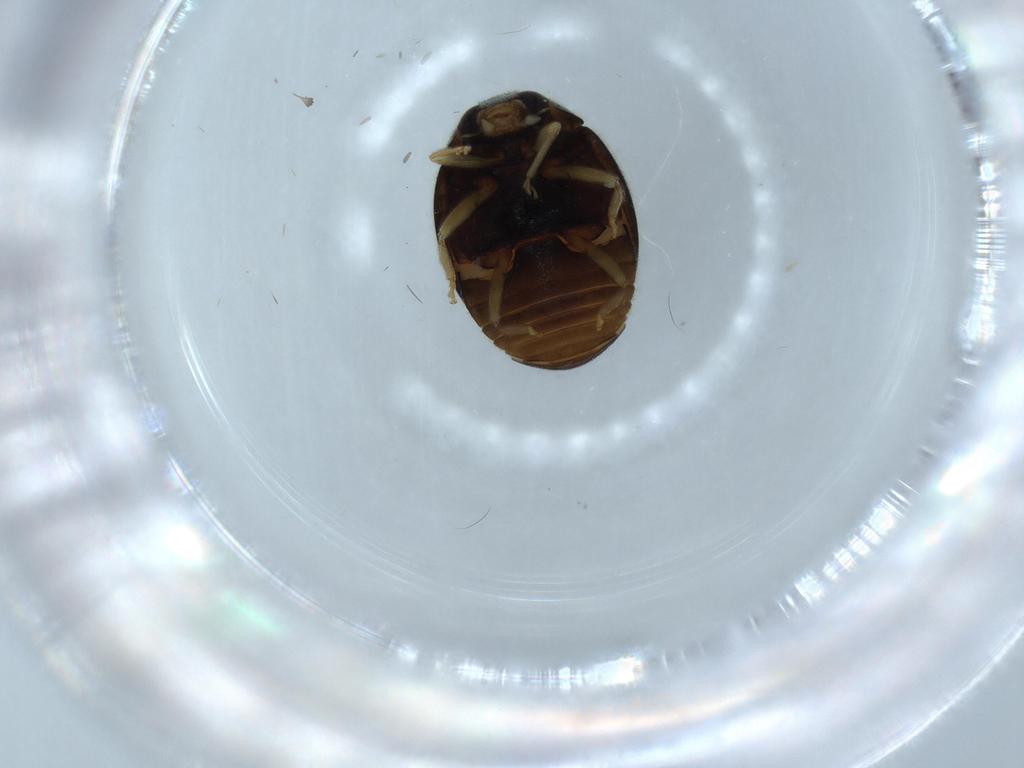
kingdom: Animalia
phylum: Arthropoda
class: Insecta
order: Coleoptera
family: Coccinellidae
